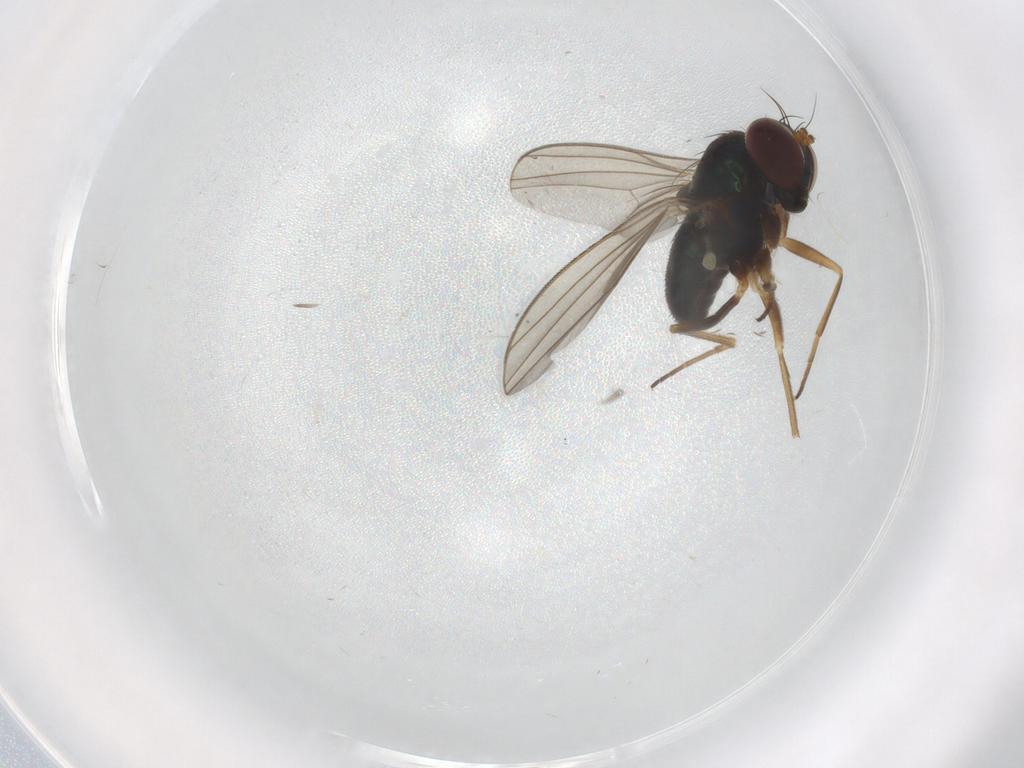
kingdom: Animalia
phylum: Arthropoda
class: Insecta
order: Diptera
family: Dolichopodidae
